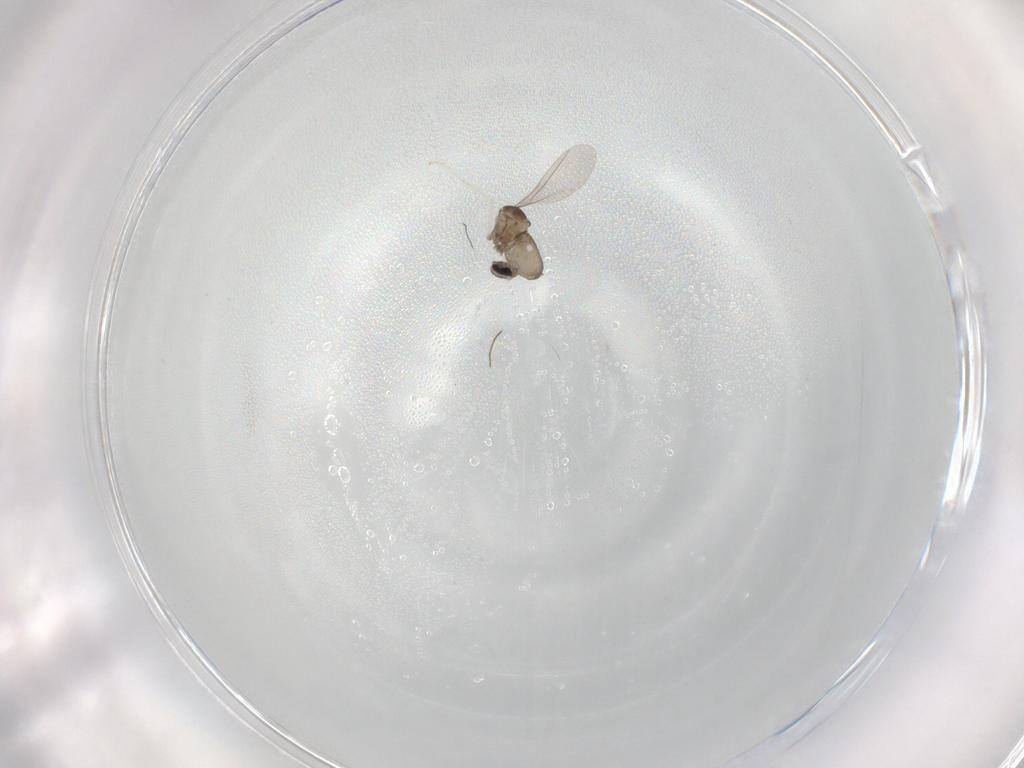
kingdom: Animalia
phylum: Arthropoda
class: Insecta
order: Diptera
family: Cecidomyiidae
